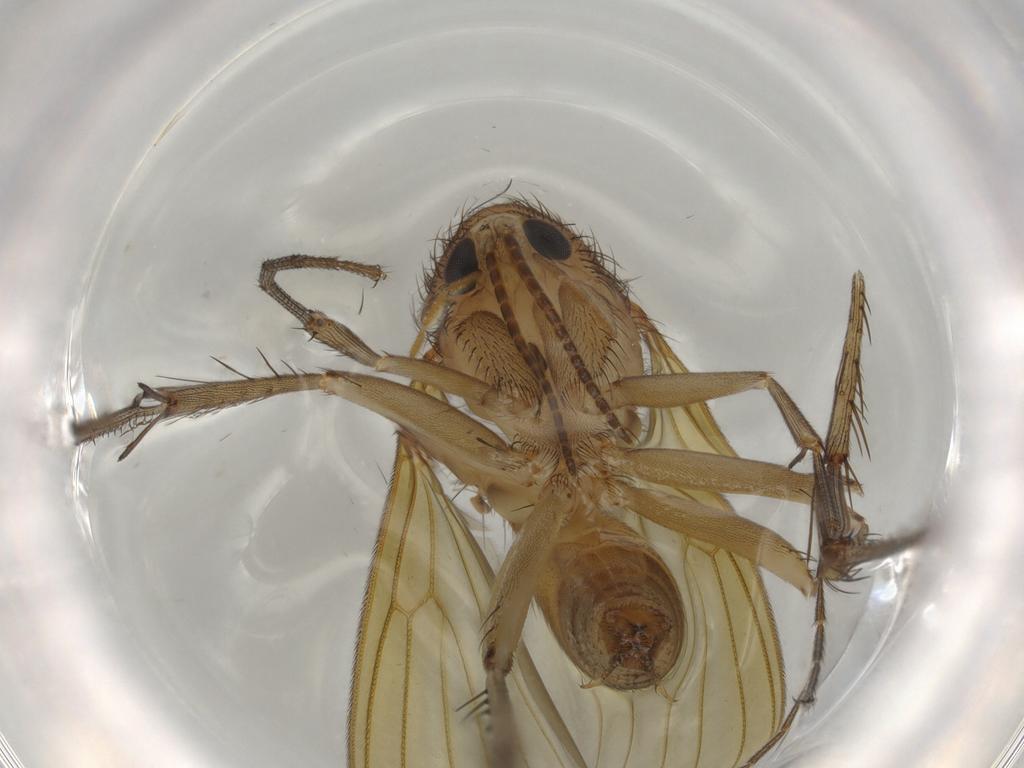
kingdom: Animalia
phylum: Arthropoda
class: Insecta
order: Diptera
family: Mycetophilidae
